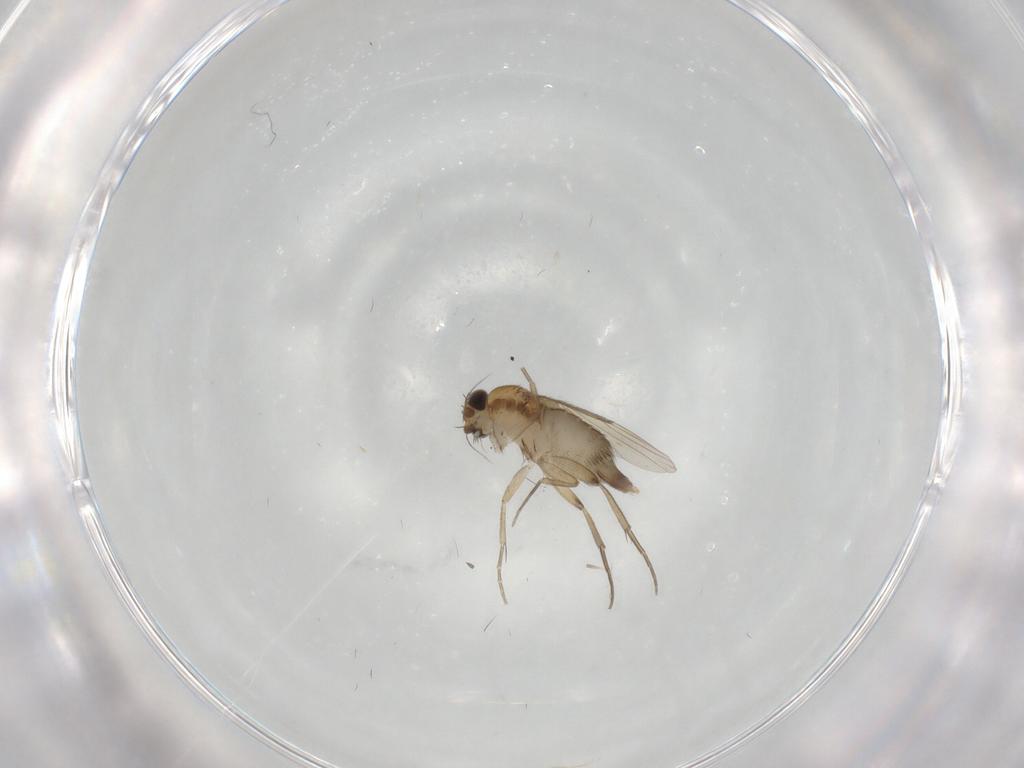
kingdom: Animalia
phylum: Arthropoda
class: Insecta
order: Diptera
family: Phoridae
